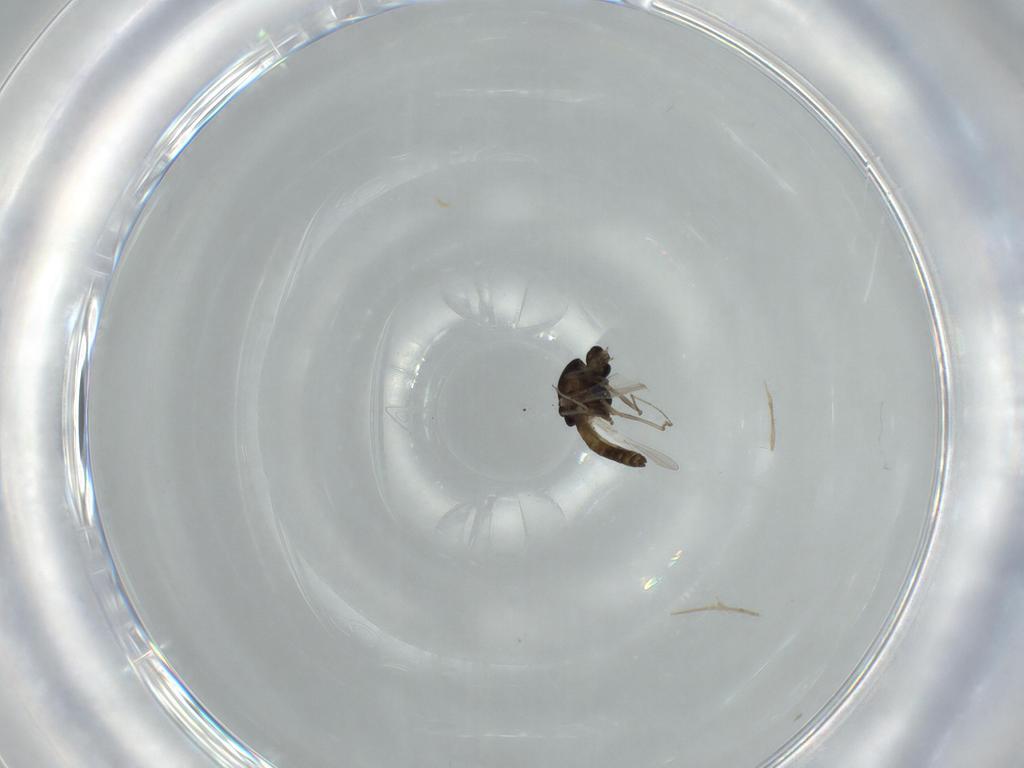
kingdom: Animalia
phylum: Arthropoda
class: Insecta
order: Diptera
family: Chironomidae
